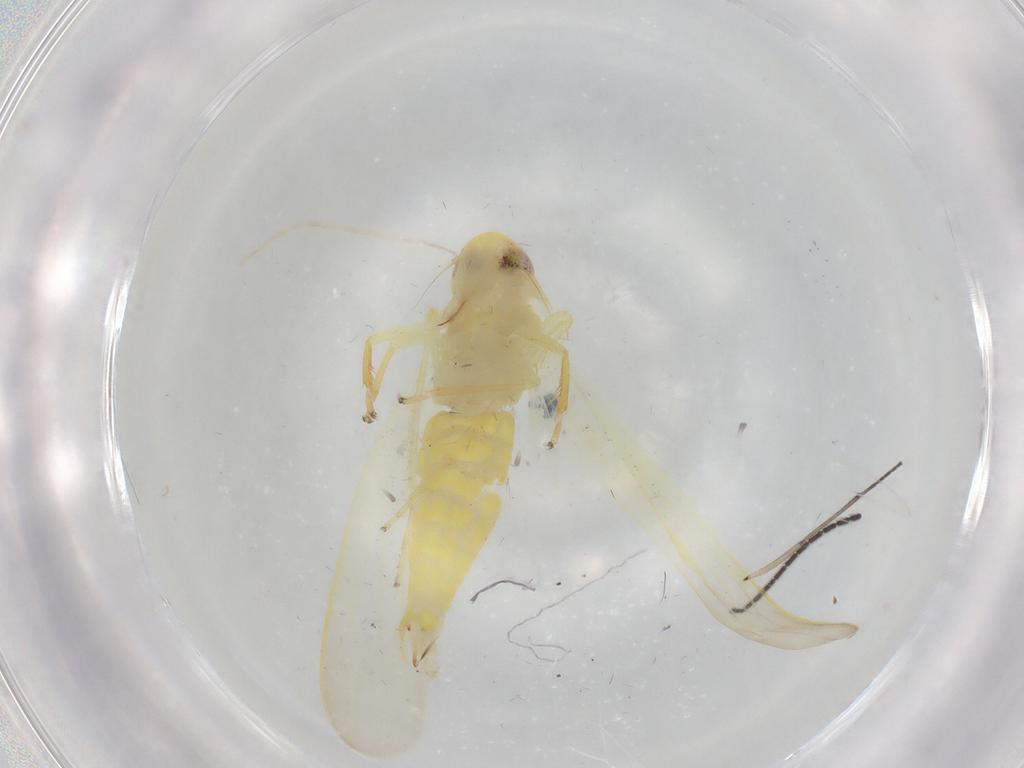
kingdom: Animalia
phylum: Arthropoda
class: Insecta
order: Hemiptera
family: Cicadellidae
